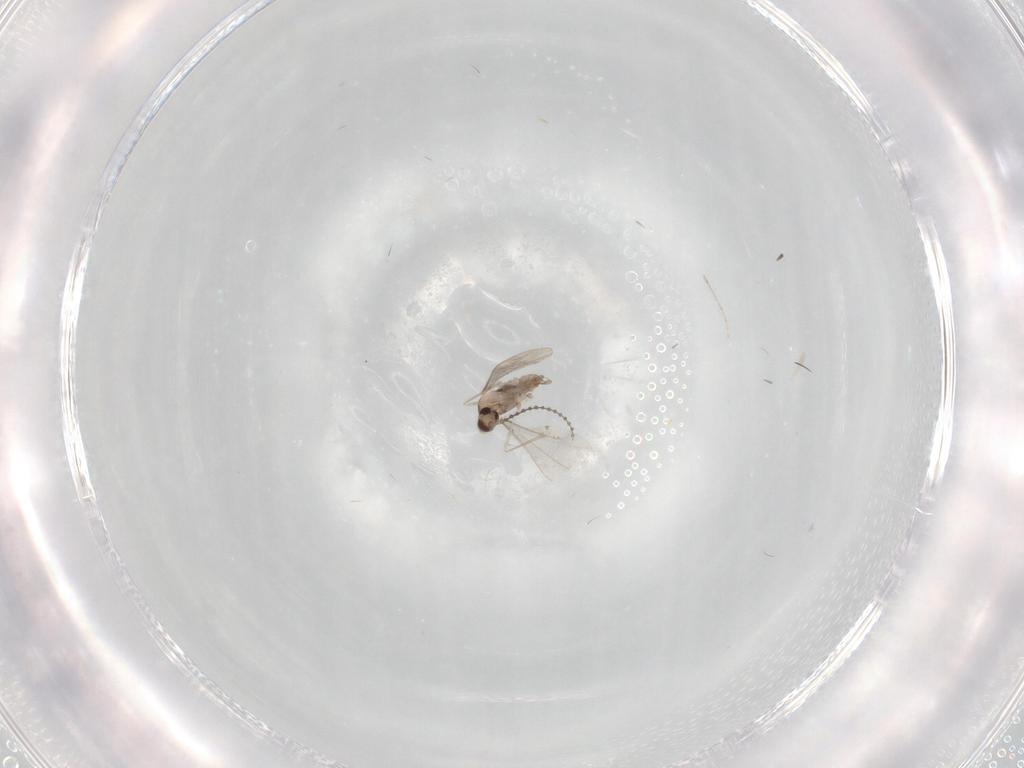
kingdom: Animalia
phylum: Arthropoda
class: Insecta
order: Diptera
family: Cecidomyiidae
